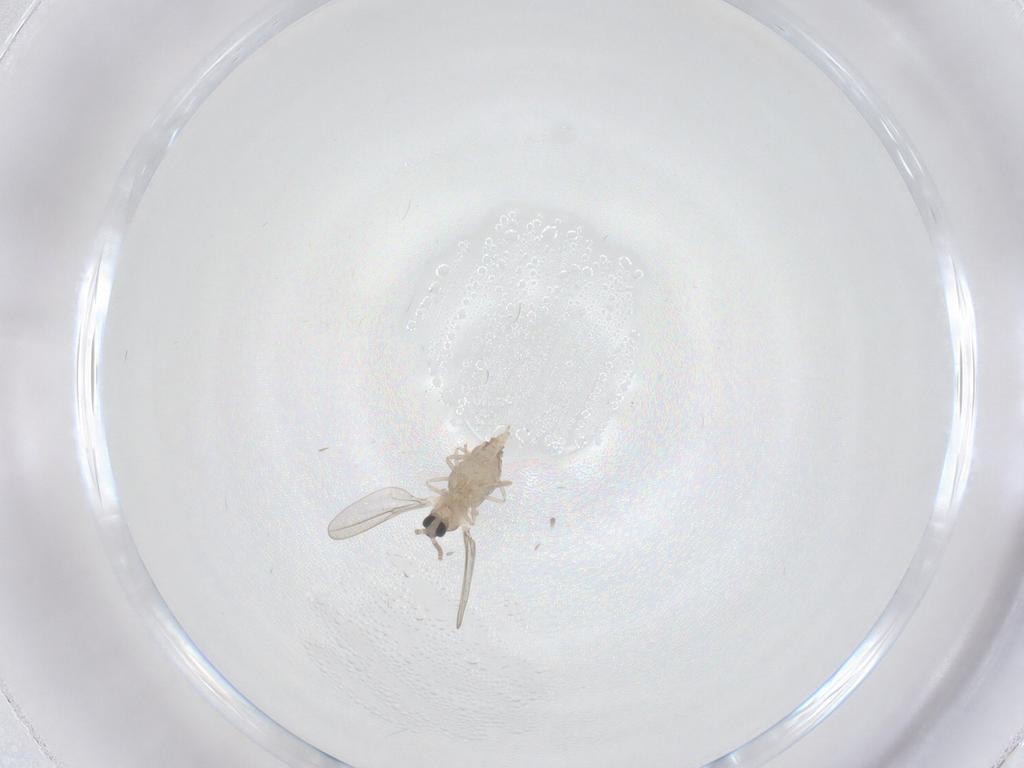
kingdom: Animalia
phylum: Arthropoda
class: Insecta
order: Diptera
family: Cecidomyiidae
